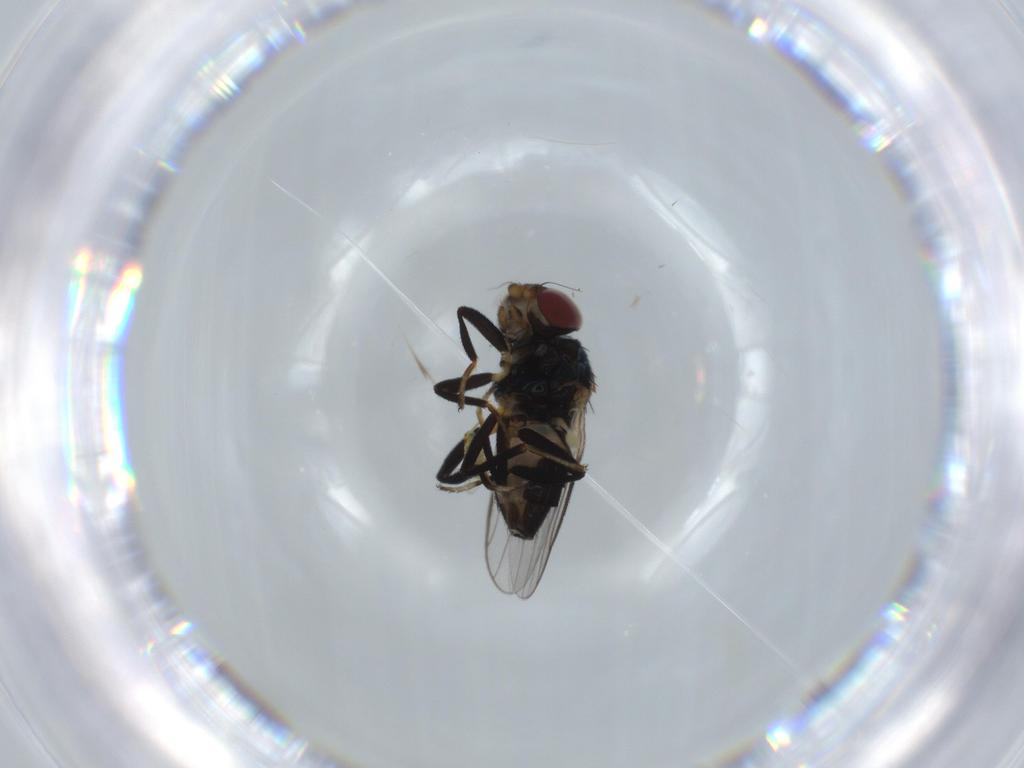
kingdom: Animalia
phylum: Arthropoda
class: Insecta
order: Diptera
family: Chloropidae
